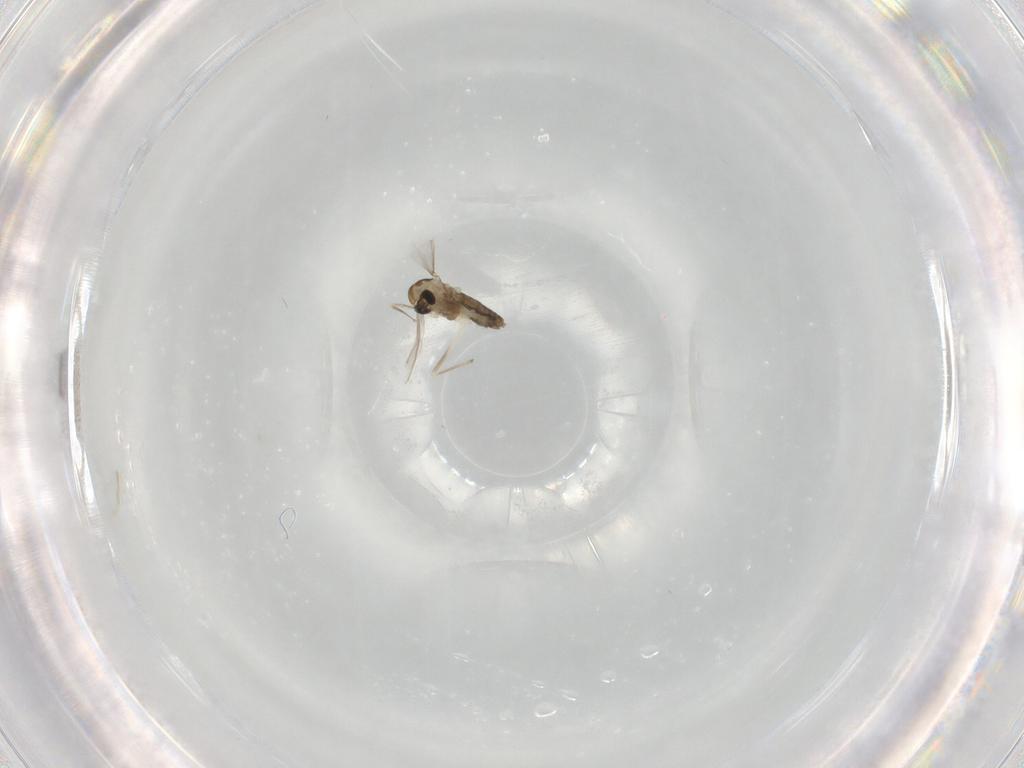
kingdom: Animalia
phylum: Arthropoda
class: Insecta
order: Diptera
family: Chironomidae
